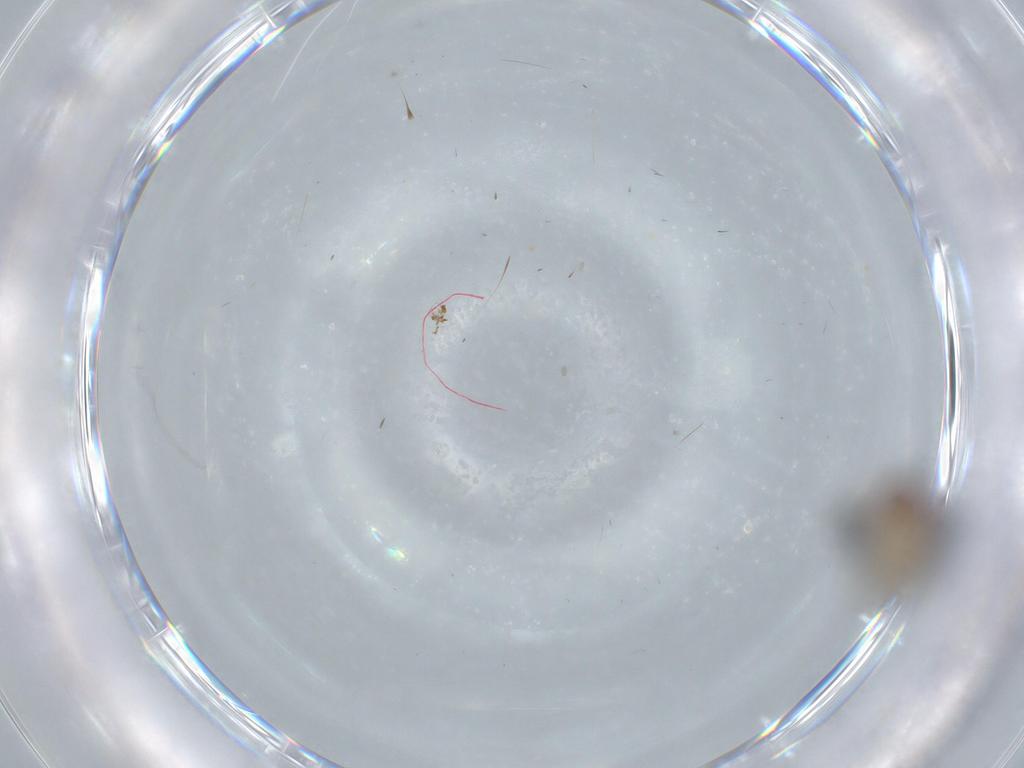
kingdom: Animalia
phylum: Arthropoda
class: Insecta
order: Diptera
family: Drosophilidae
